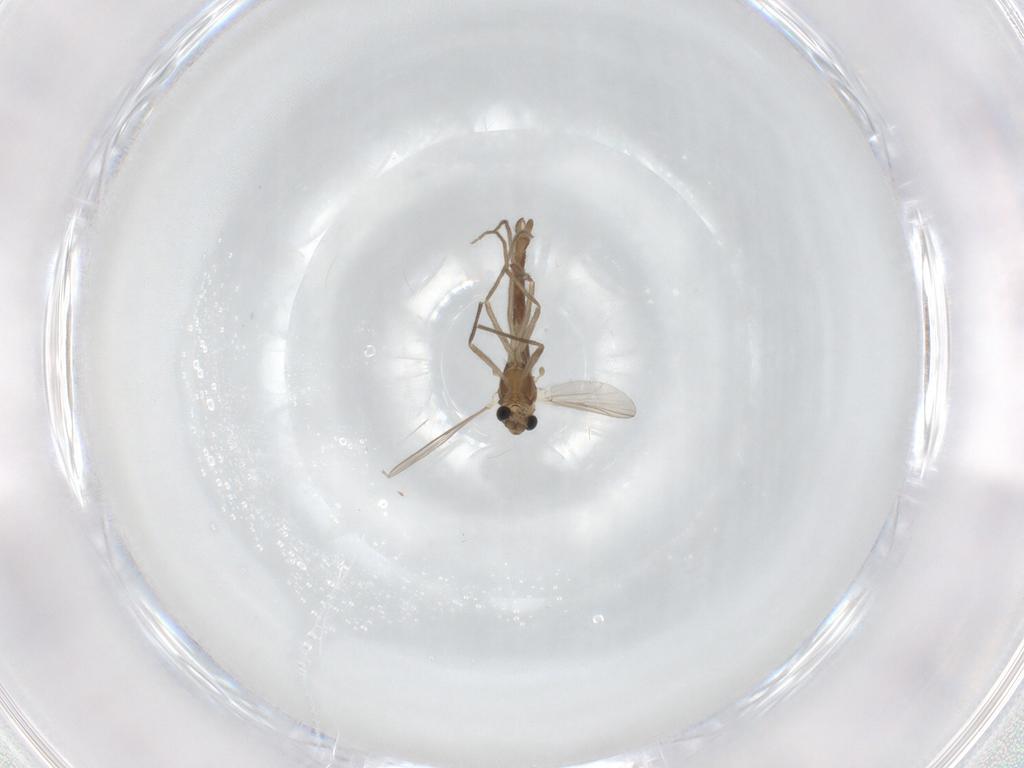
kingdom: Animalia
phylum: Arthropoda
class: Insecta
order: Diptera
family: Chironomidae
